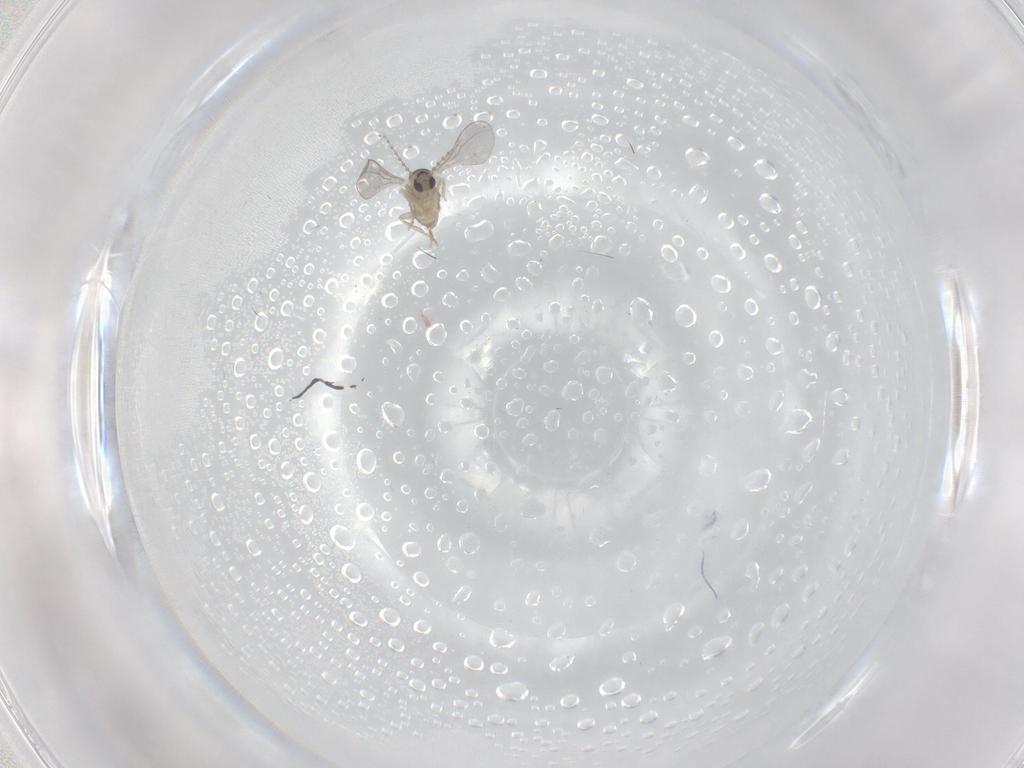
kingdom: Animalia
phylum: Arthropoda
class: Insecta
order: Diptera
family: Cecidomyiidae
